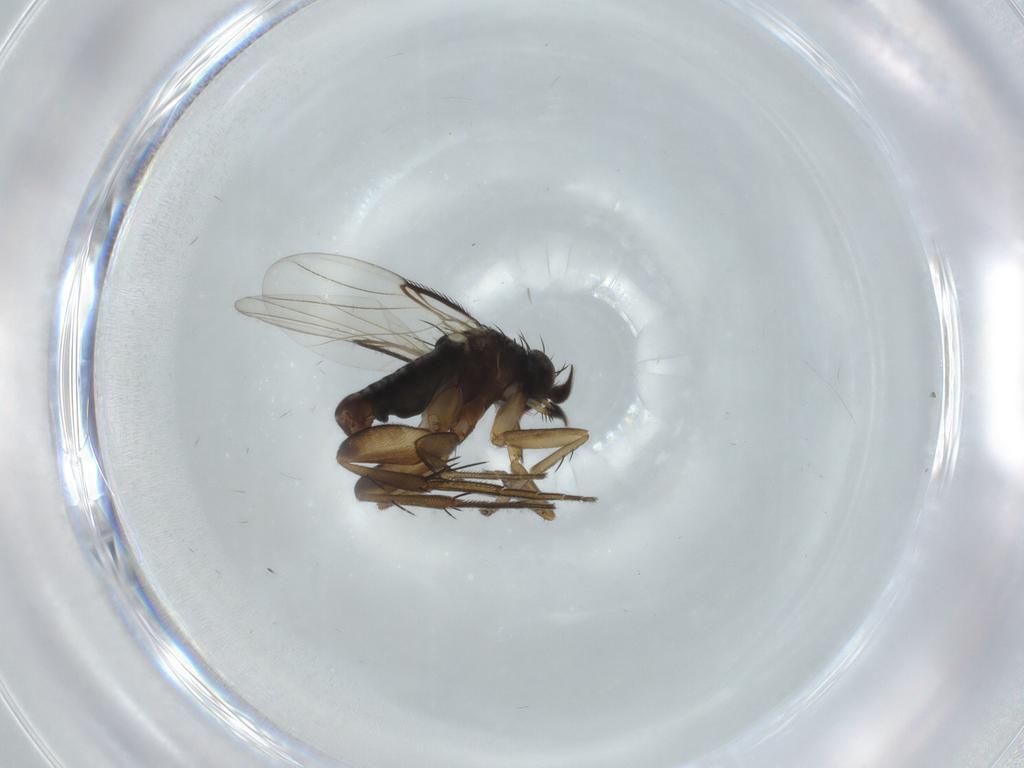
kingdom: Animalia
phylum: Arthropoda
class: Insecta
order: Diptera
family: Phoridae
